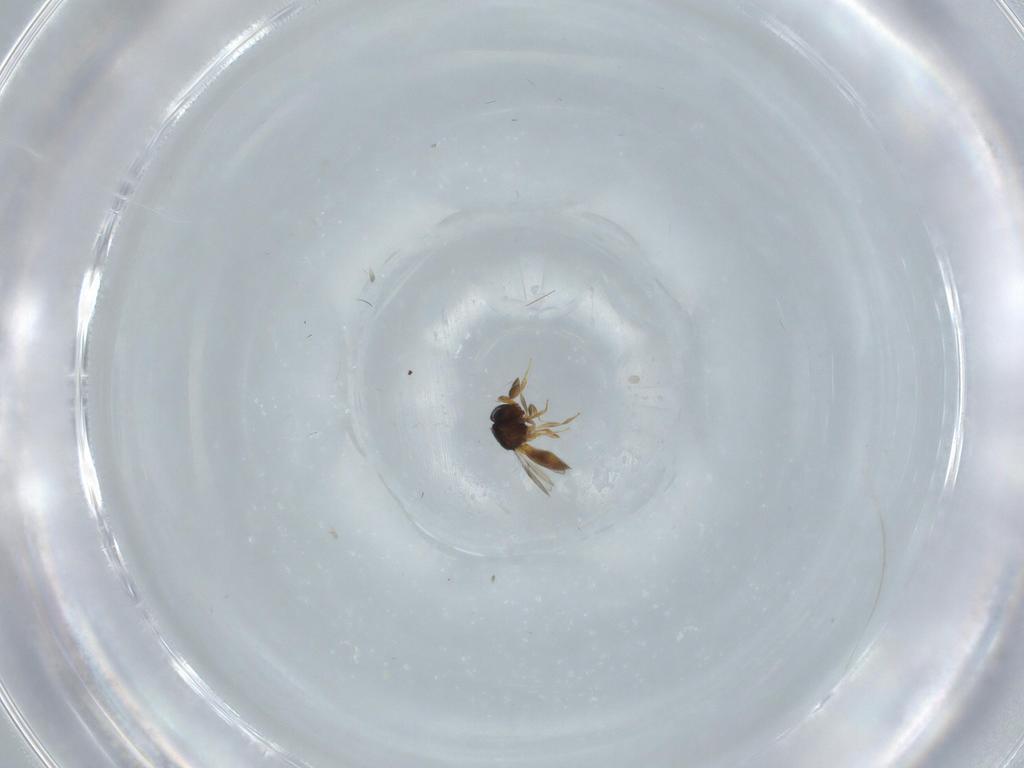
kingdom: Animalia
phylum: Arthropoda
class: Insecta
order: Hymenoptera
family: Scelionidae
